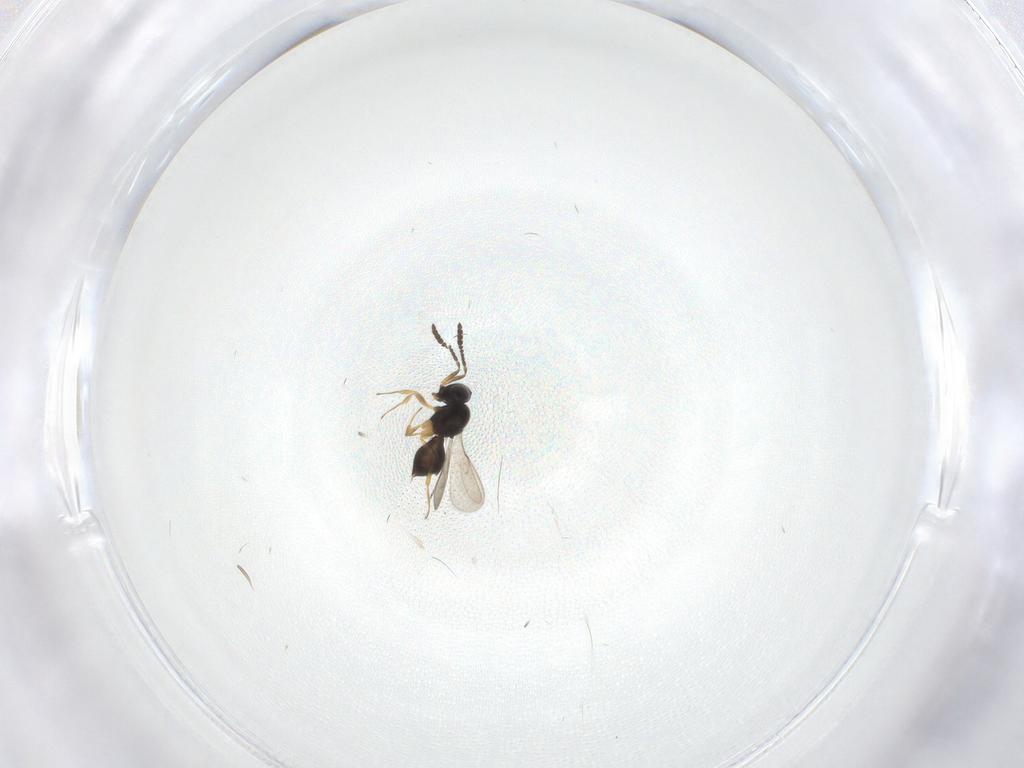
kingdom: Animalia
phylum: Arthropoda
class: Insecta
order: Hymenoptera
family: Scelionidae
